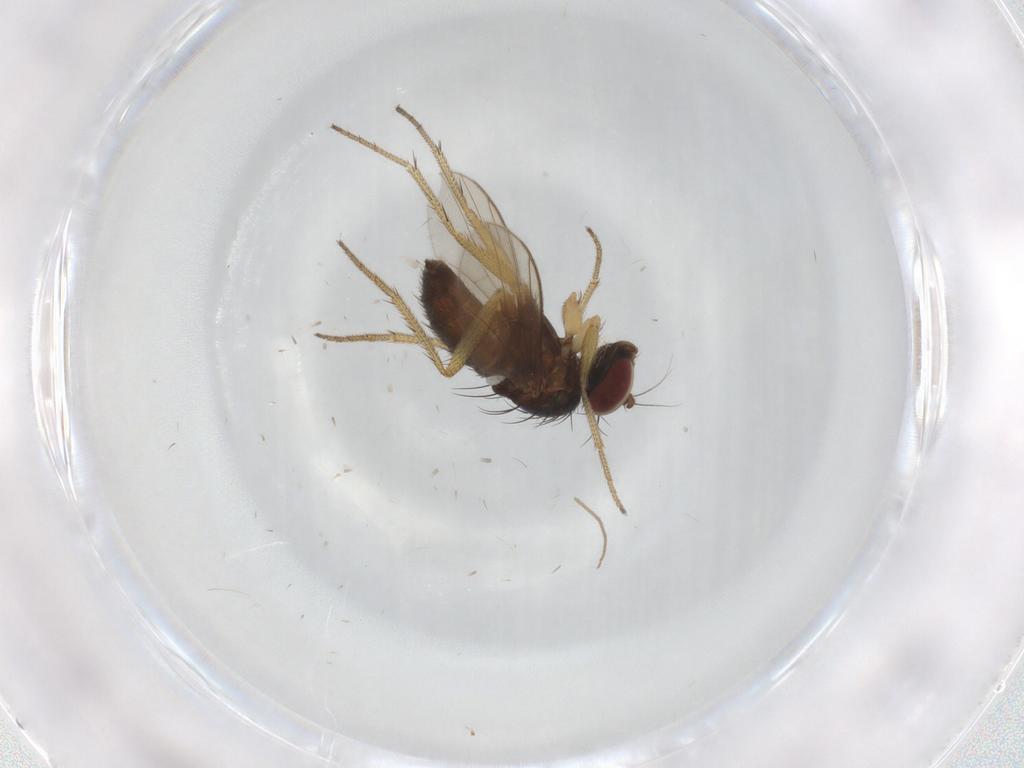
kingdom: Animalia
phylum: Arthropoda
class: Insecta
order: Diptera
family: Dolichopodidae
